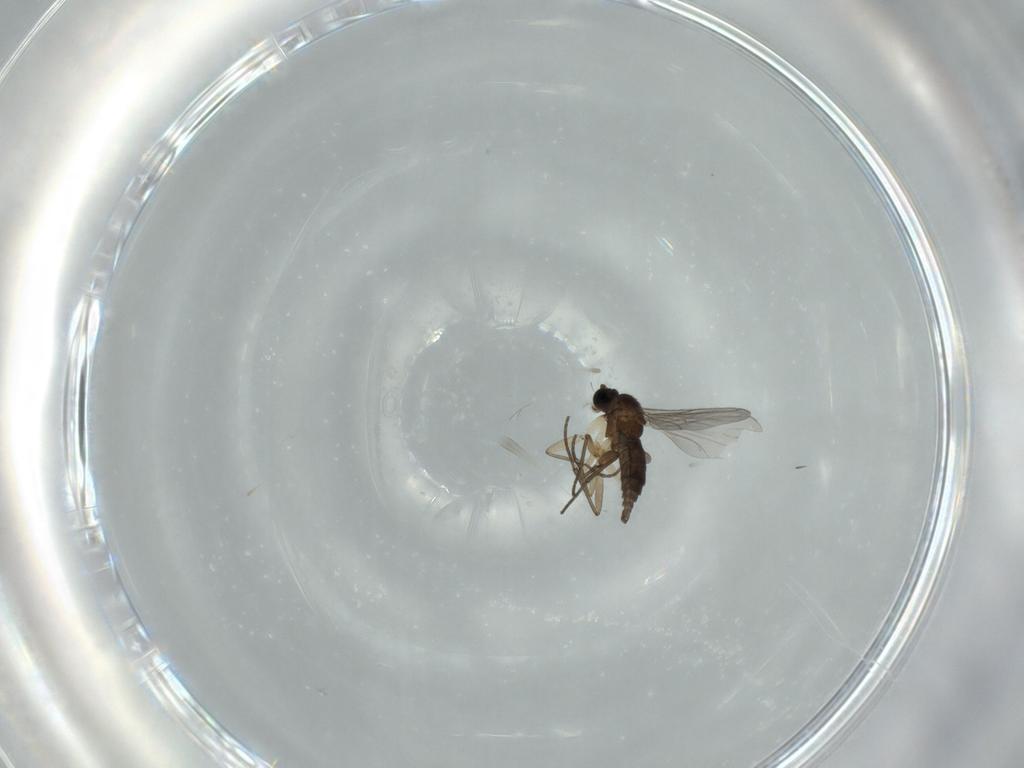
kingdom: Animalia
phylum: Arthropoda
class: Insecta
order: Diptera
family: Sciaridae
